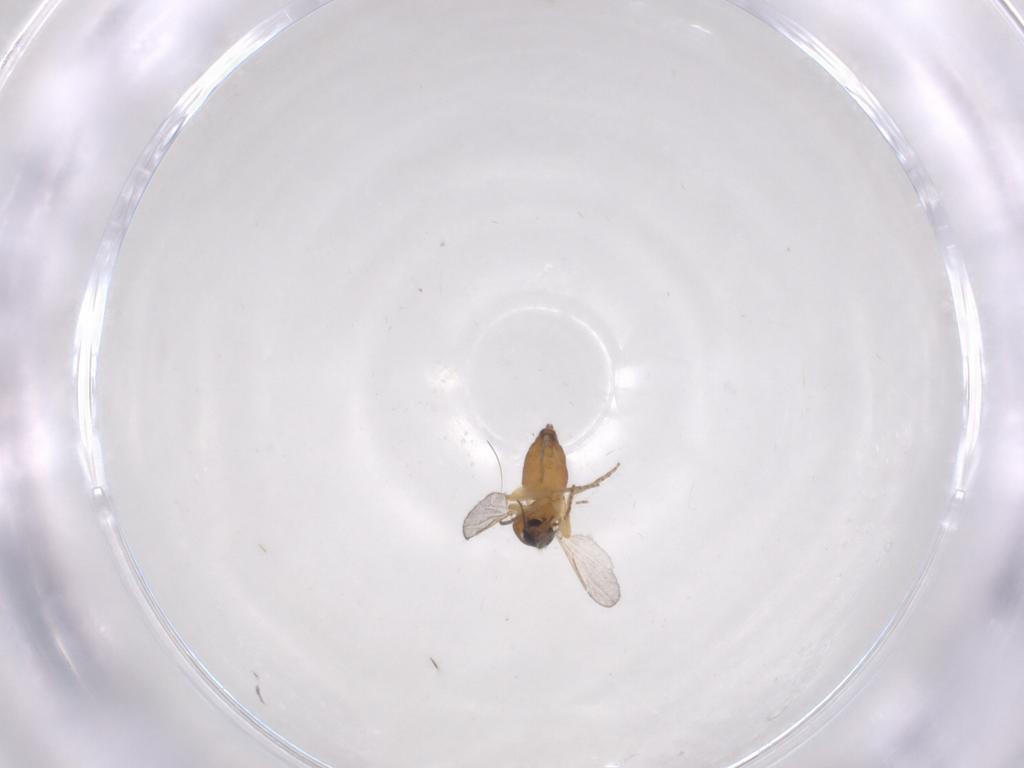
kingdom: Animalia
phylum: Arthropoda
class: Insecta
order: Diptera
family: Ceratopogonidae
